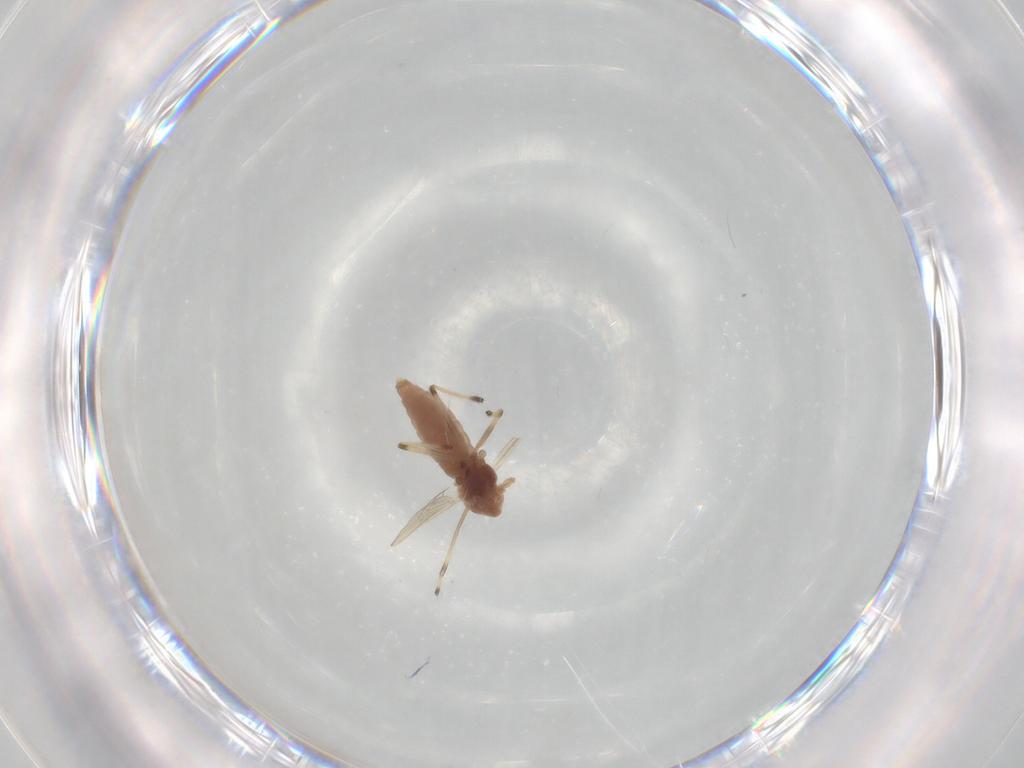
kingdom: Animalia
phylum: Arthropoda
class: Insecta
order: Diptera
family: Chironomidae
